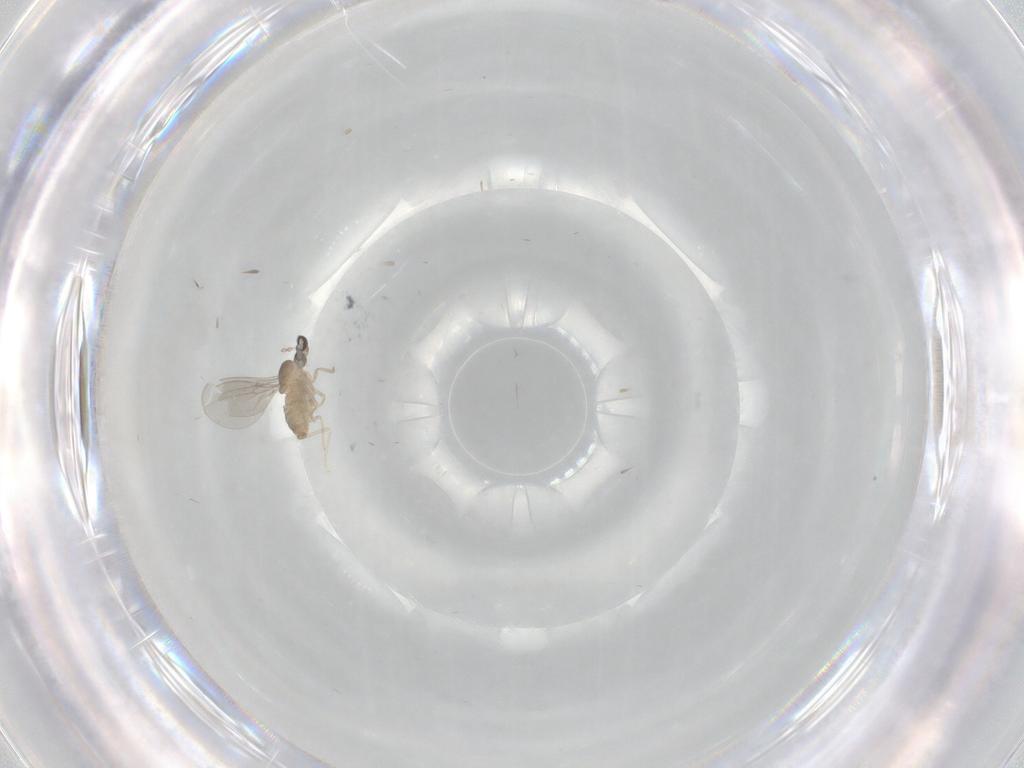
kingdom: Animalia
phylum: Arthropoda
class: Insecta
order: Diptera
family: Cecidomyiidae
